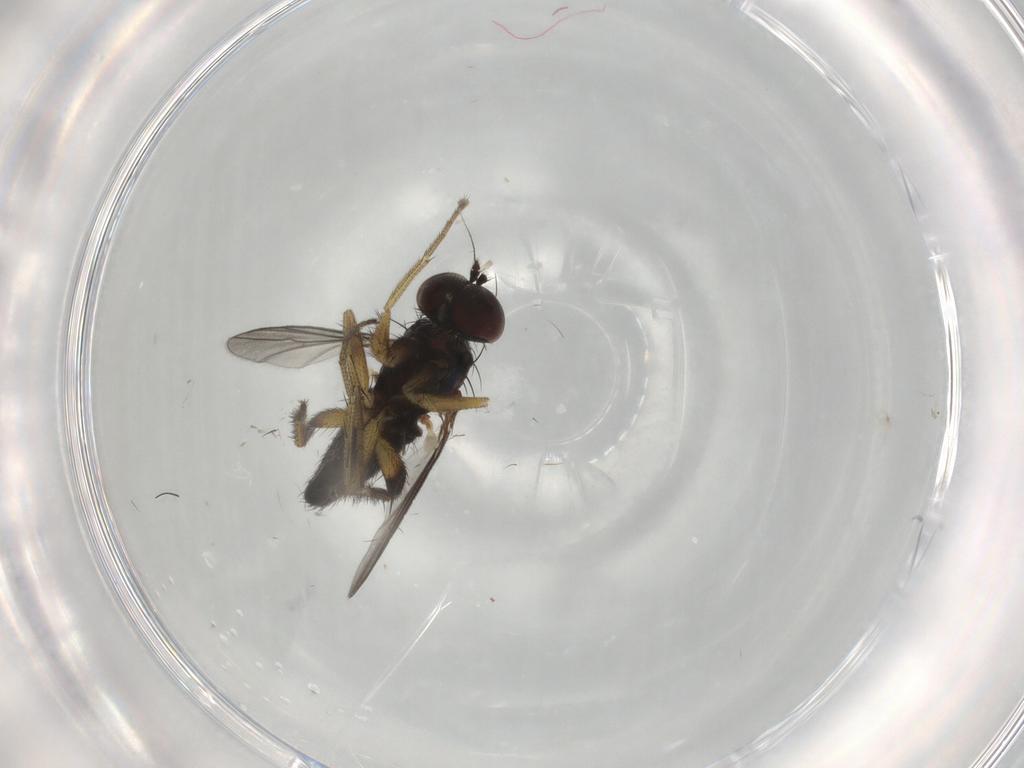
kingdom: Animalia
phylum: Arthropoda
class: Insecta
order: Diptera
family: Dolichopodidae
